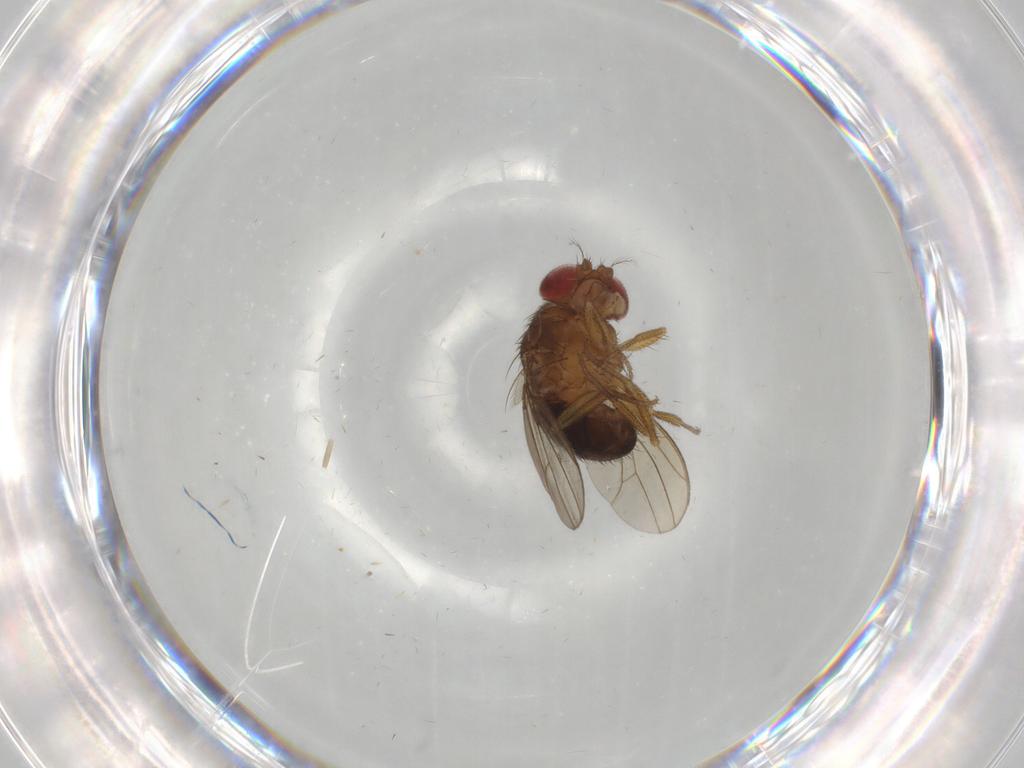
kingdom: Animalia
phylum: Arthropoda
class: Insecta
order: Diptera
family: Drosophilidae
